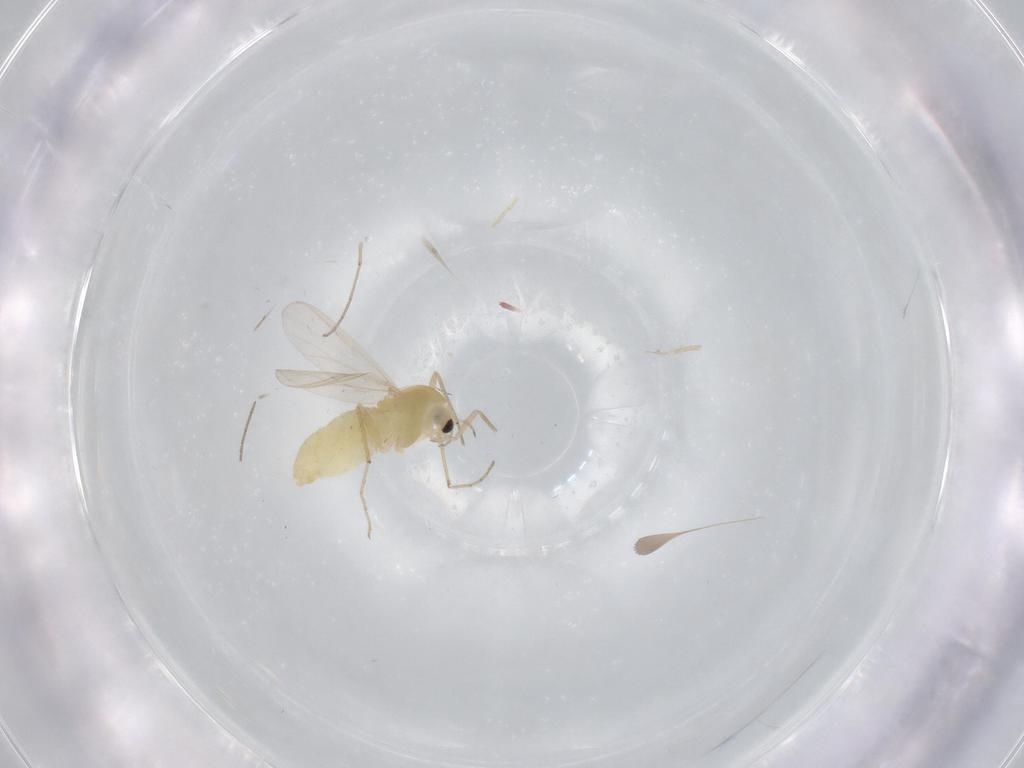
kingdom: Animalia
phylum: Arthropoda
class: Insecta
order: Diptera
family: Chironomidae
